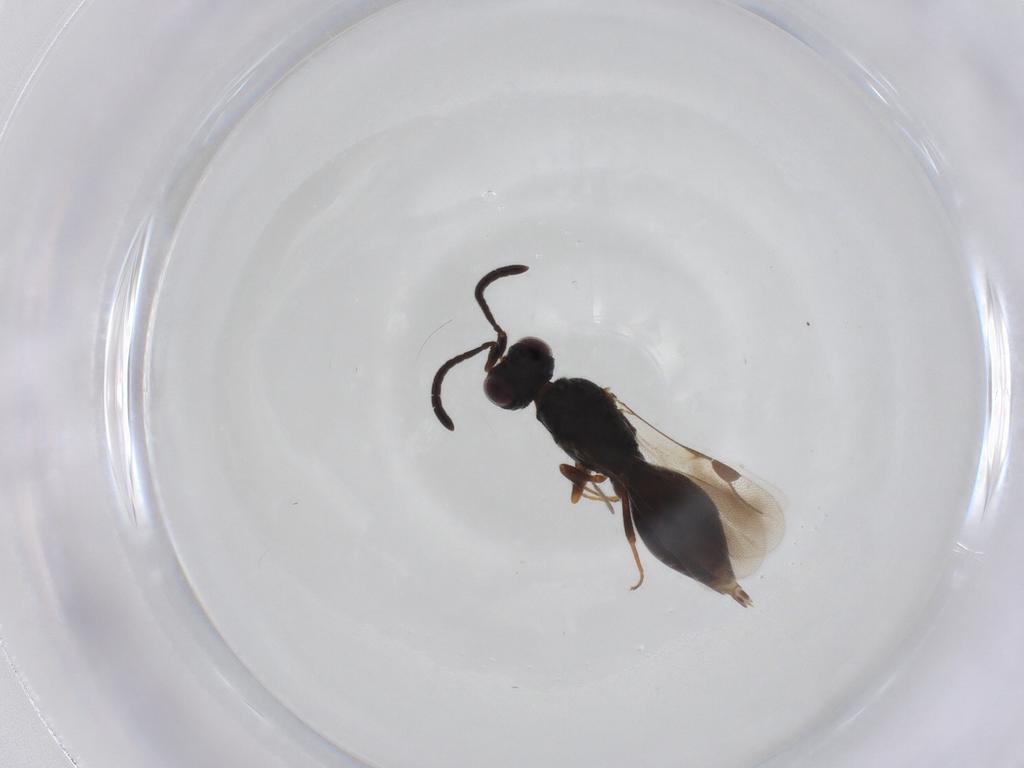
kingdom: Animalia
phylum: Arthropoda
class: Insecta
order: Hymenoptera
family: Megaspilidae
